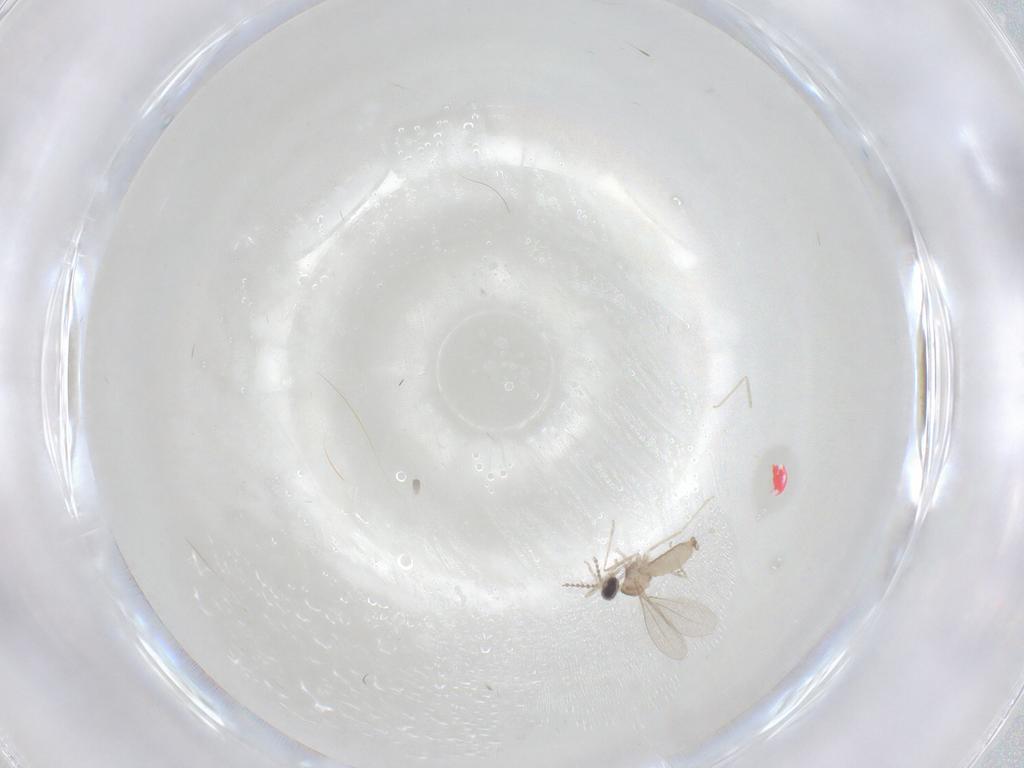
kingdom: Animalia
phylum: Arthropoda
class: Insecta
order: Diptera
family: Cecidomyiidae
